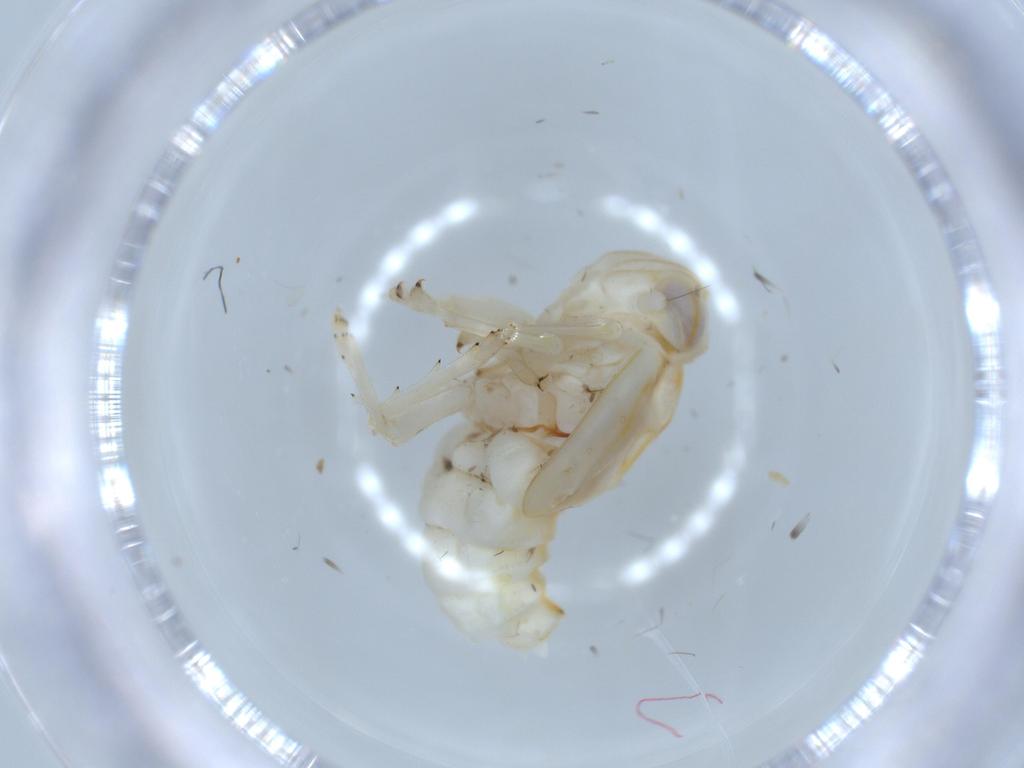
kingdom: Animalia
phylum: Arthropoda
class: Insecta
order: Hemiptera
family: Nogodinidae
